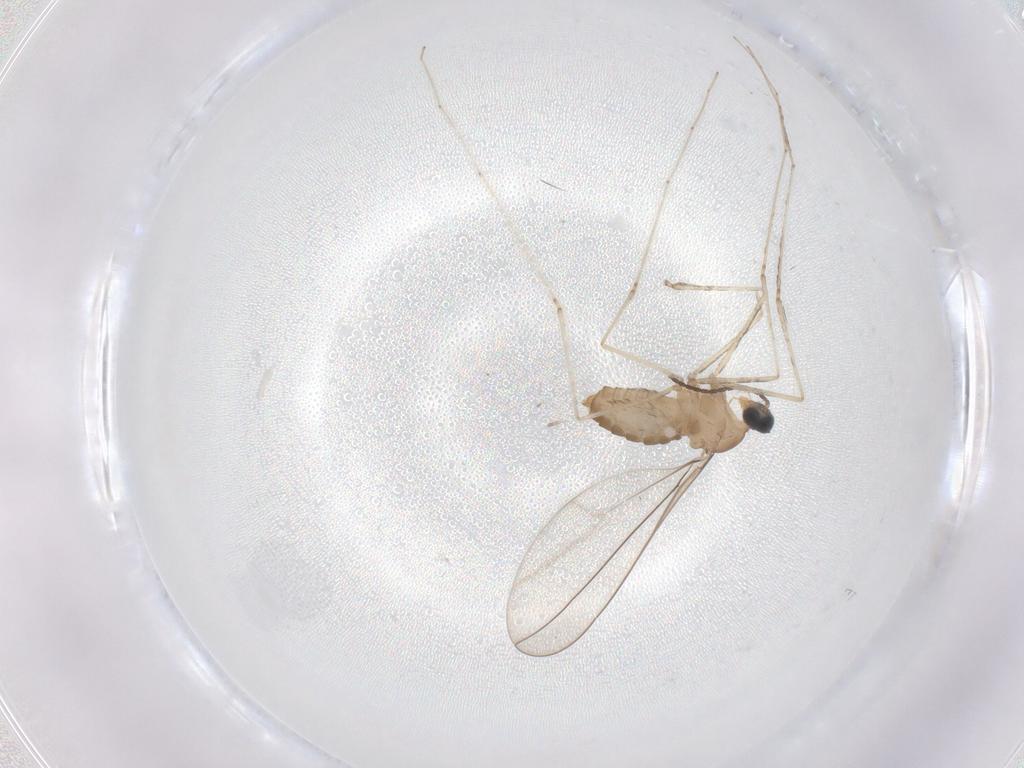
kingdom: Animalia
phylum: Arthropoda
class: Insecta
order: Diptera
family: Cecidomyiidae
